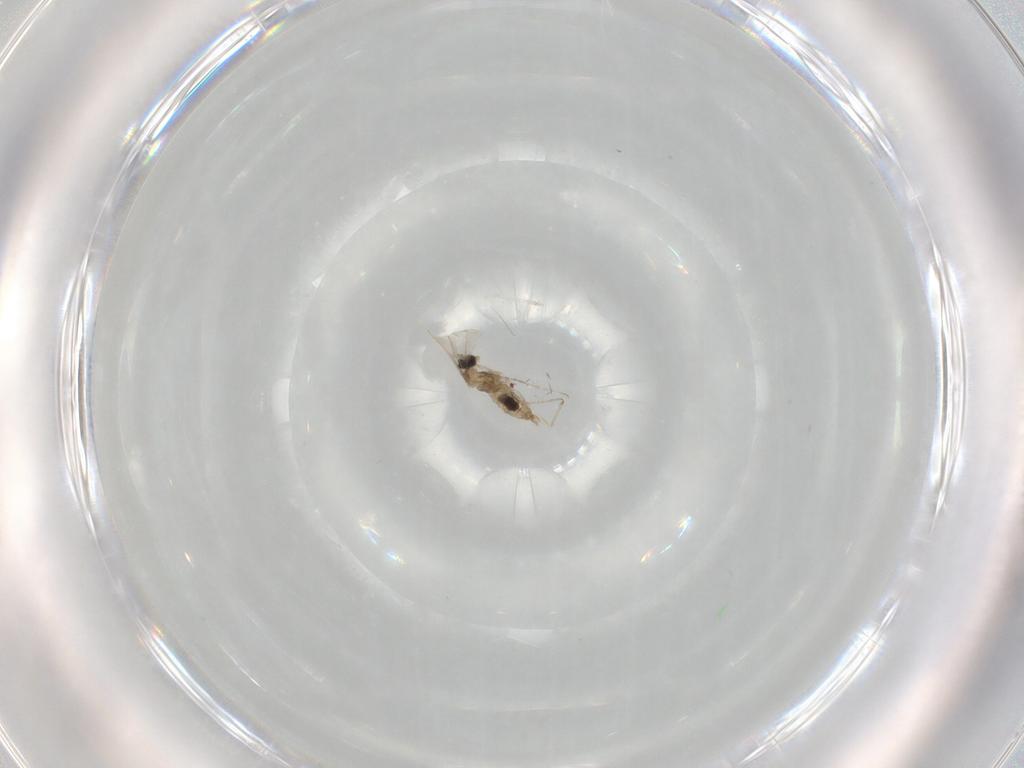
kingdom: Animalia
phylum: Arthropoda
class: Insecta
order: Diptera
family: Cecidomyiidae
